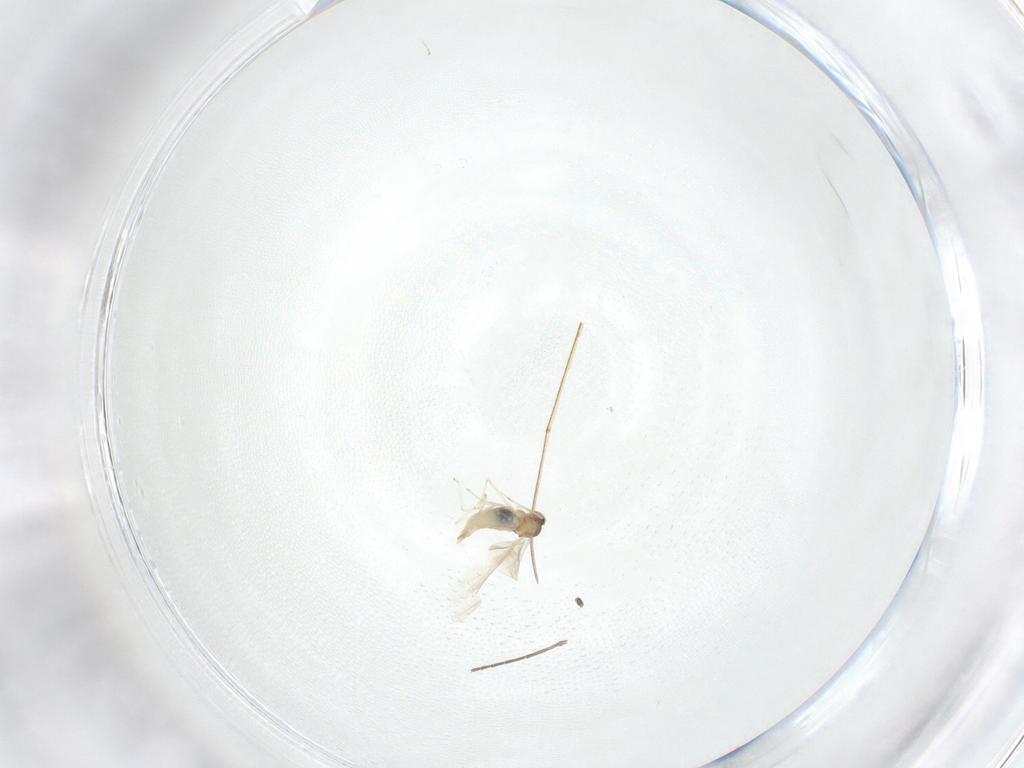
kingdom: Animalia
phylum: Arthropoda
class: Insecta
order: Diptera
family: Sciaridae
